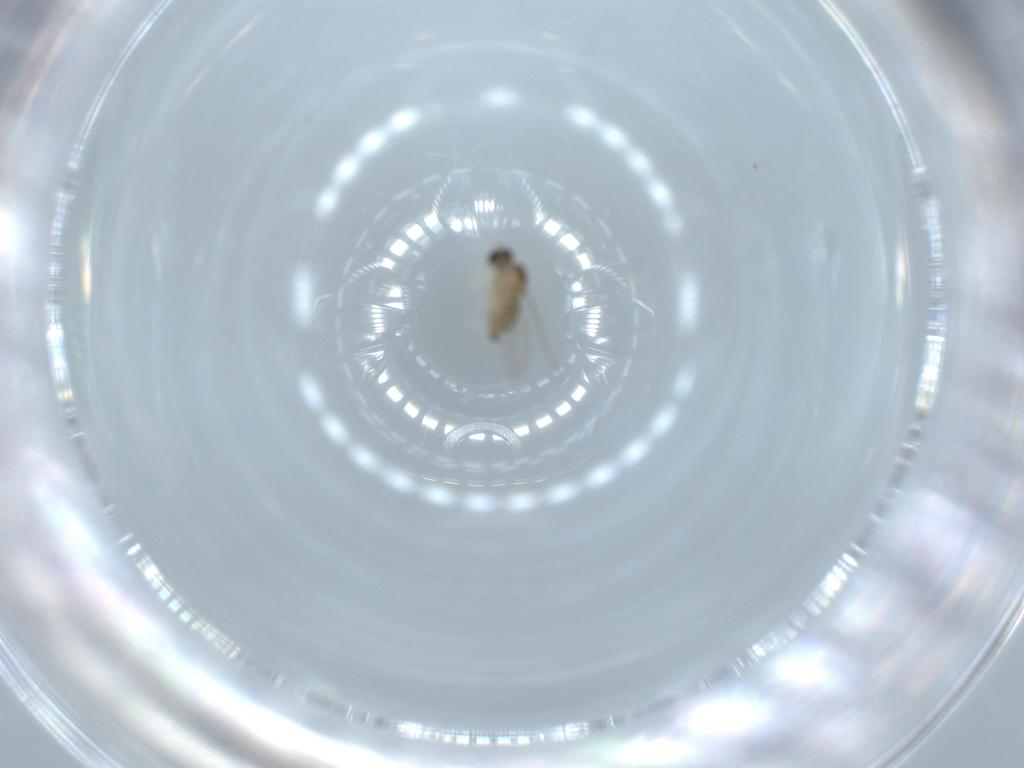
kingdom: Animalia
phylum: Arthropoda
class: Insecta
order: Diptera
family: Cecidomyiidae
